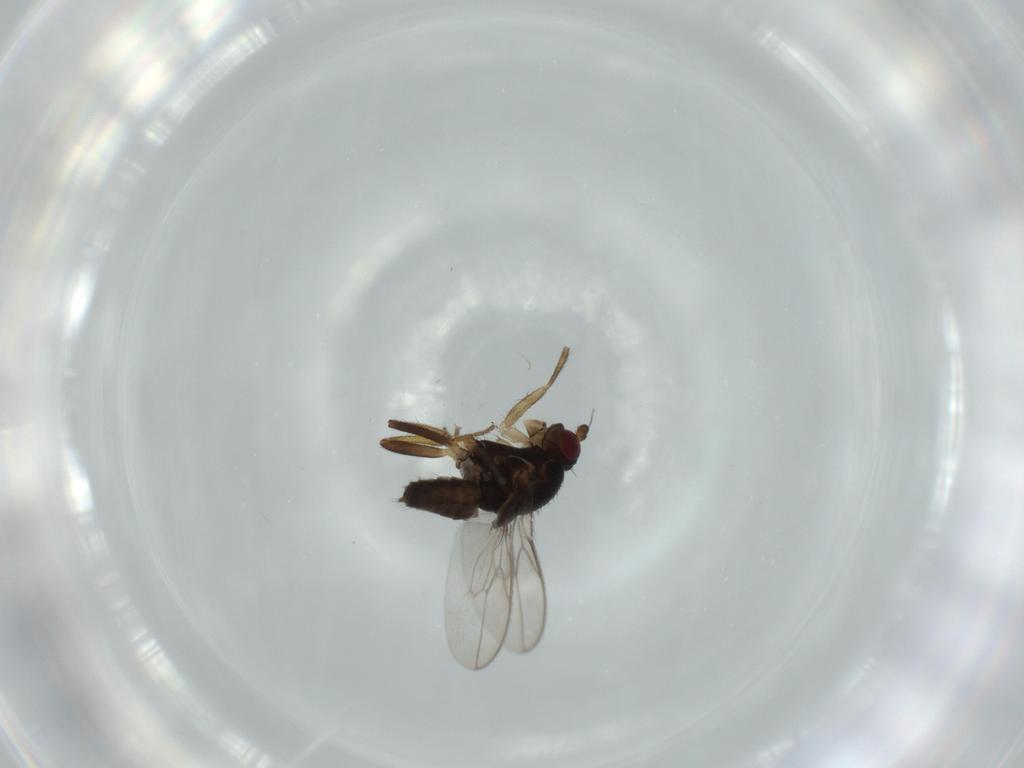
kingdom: Animalia
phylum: Arthropoda
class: Insecta
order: Diptera
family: Sphaeroceridae
